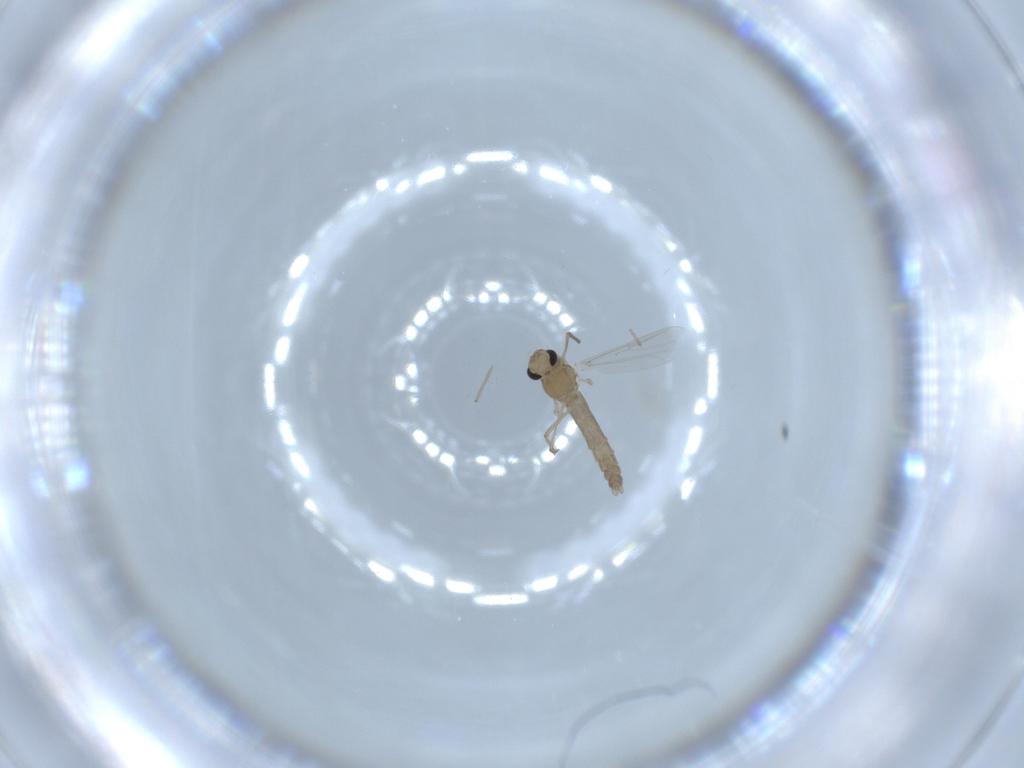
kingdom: Animalia
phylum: Arthropoda
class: Insecta
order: Diptera
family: Chironomidae
